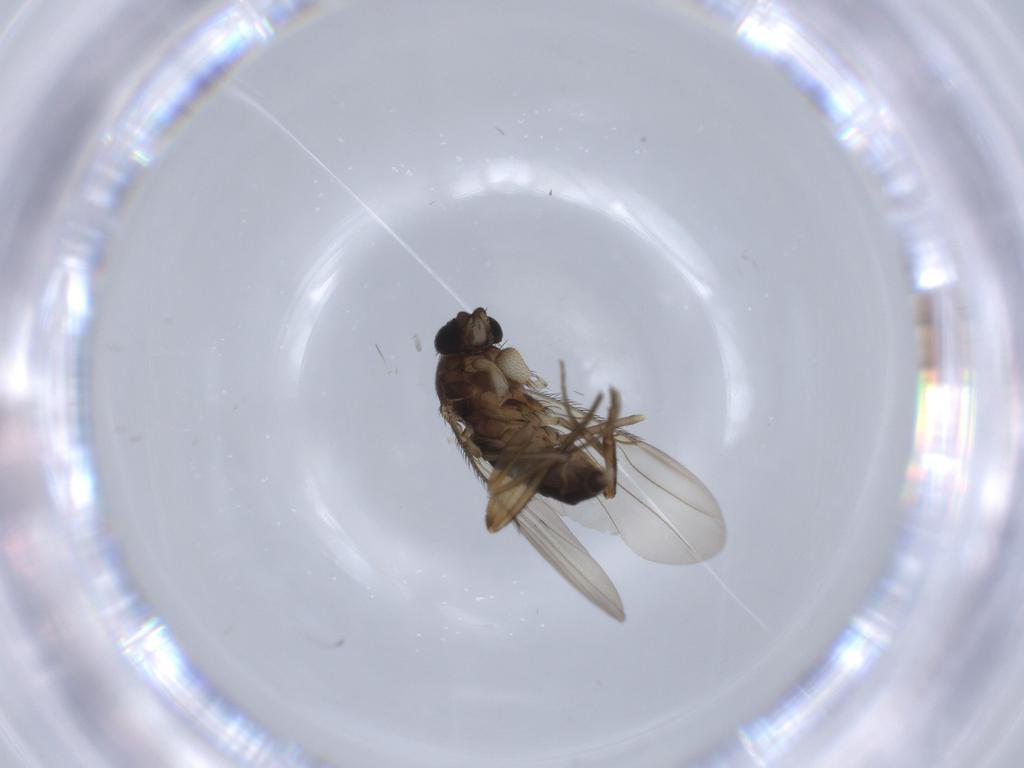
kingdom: Animalia
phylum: Arthropoda
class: Insecta
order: Diptera
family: Phoridae
